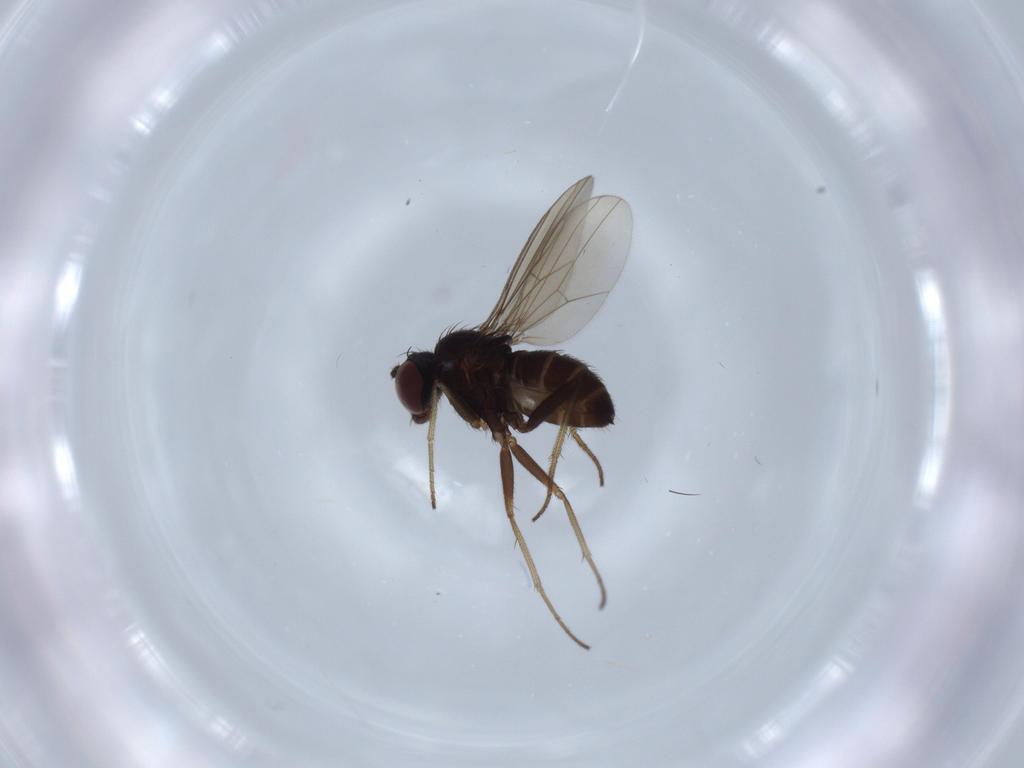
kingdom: Animalia
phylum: Arthropoda
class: Insecta
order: Diptera
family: Dolichopodidae
